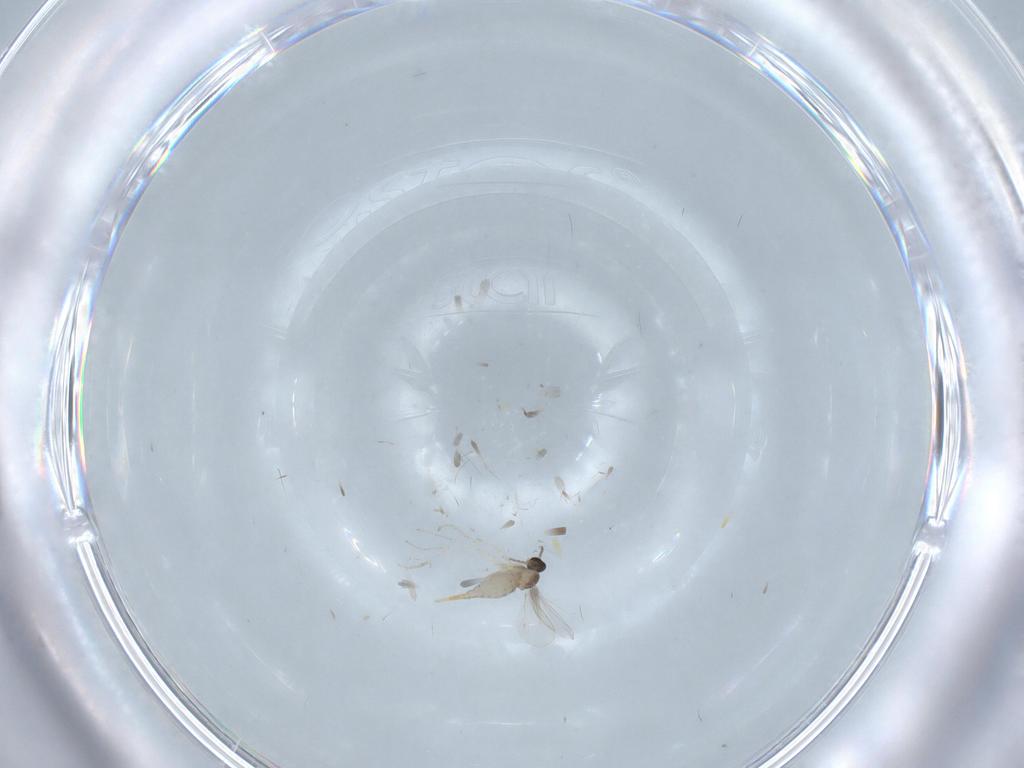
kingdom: Animalia
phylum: Arthropoda
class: Insecta
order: Diptera
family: Cecidomyiidae
